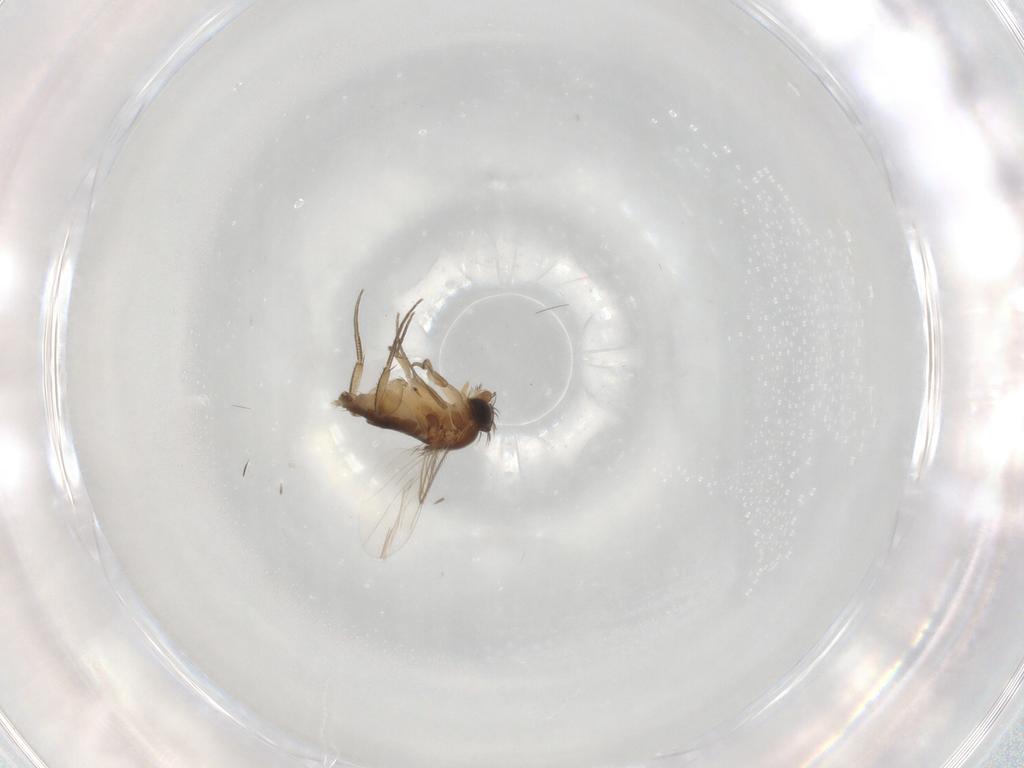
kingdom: Animalia
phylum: Arthropoda
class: Insecta
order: Diptera
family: Phoridae
